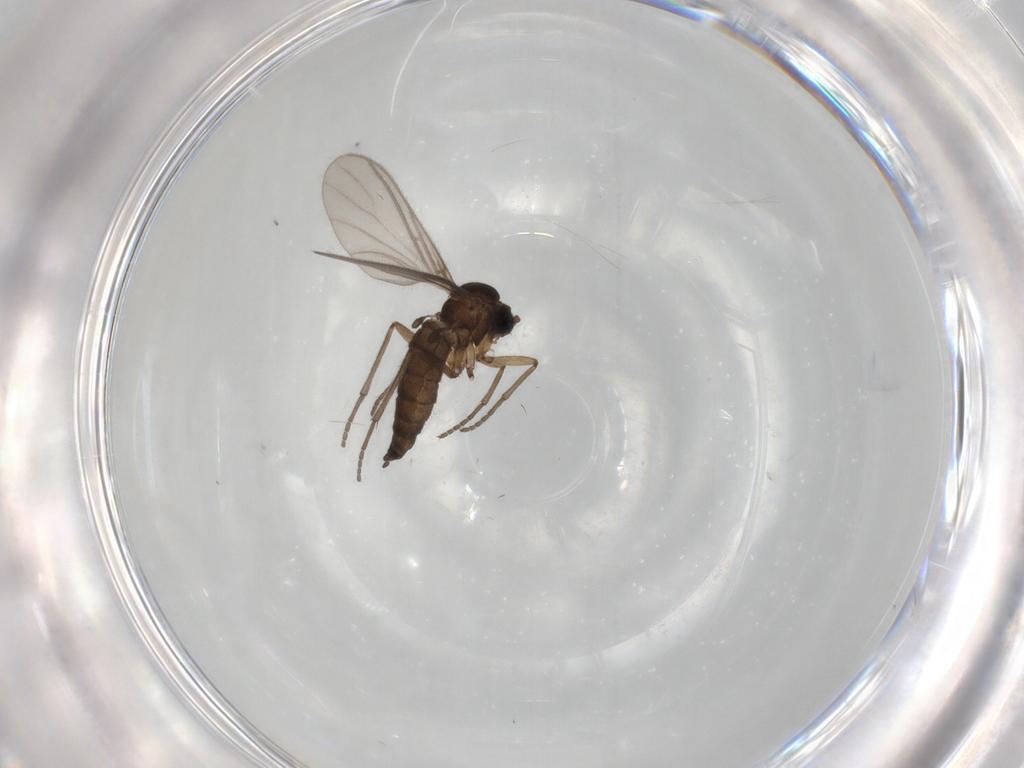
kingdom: Animalia
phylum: Arthropoda
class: Insecta
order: Diptera
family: Sciaridae
